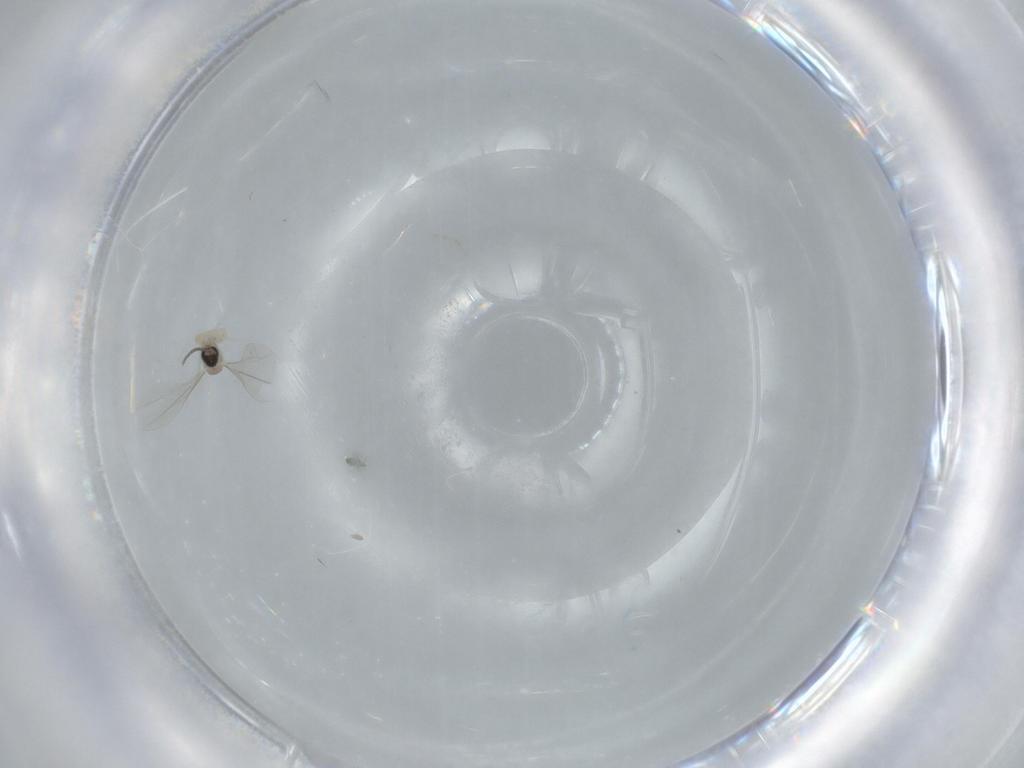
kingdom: Animalia
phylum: Arthropoda
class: Insecta
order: Diptera
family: Cecidomyiidae
